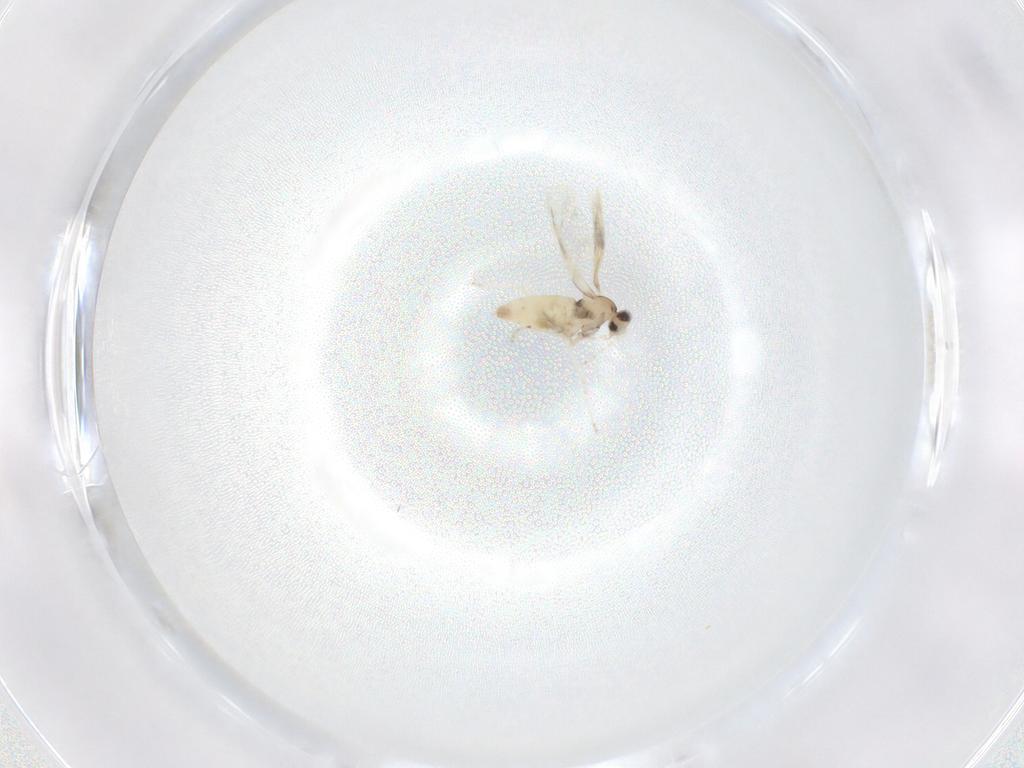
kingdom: Animalia
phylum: Arthropoda
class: Insecta
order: Diptera
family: Cecidomyiidae
